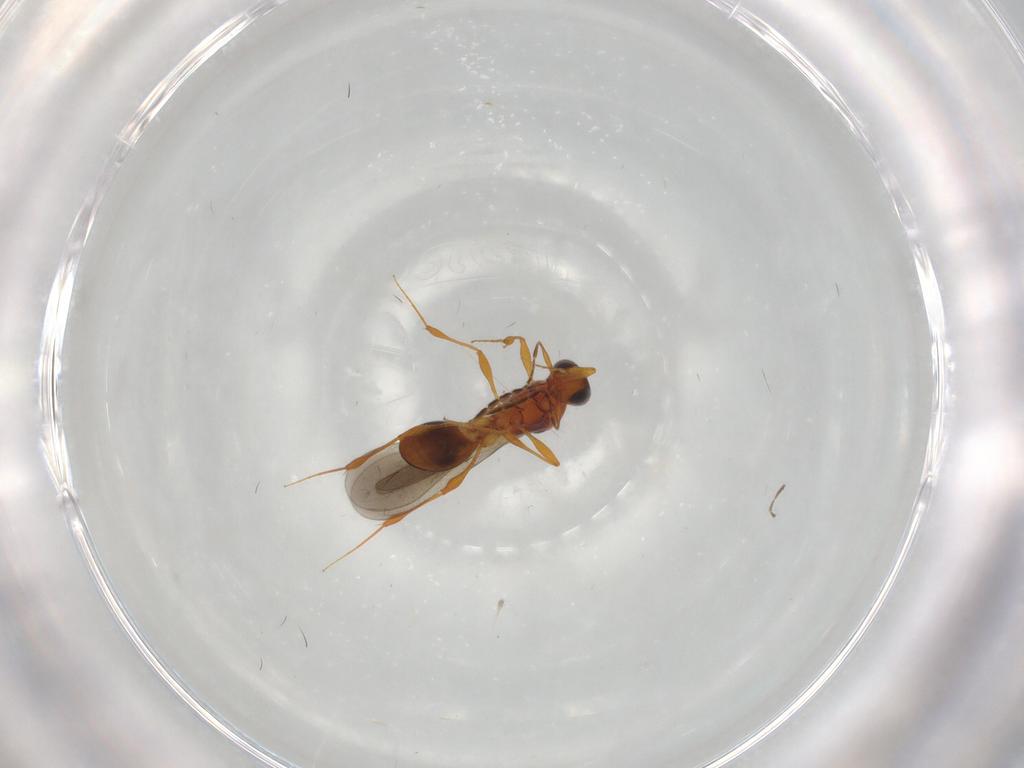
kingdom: Animalia
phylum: Arthropoda
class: Insecta
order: Hymenoptera
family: Platygastridae
